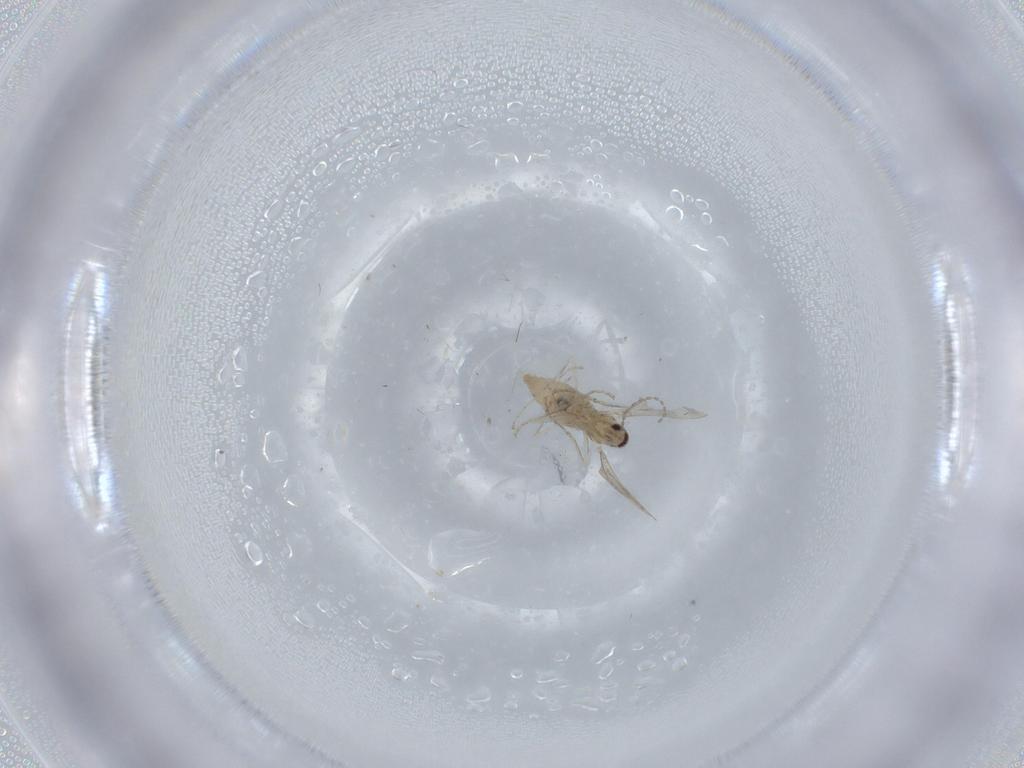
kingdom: Animalia
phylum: Arthropoda
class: Insecta
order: Diptera
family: Cecidomyiidae
